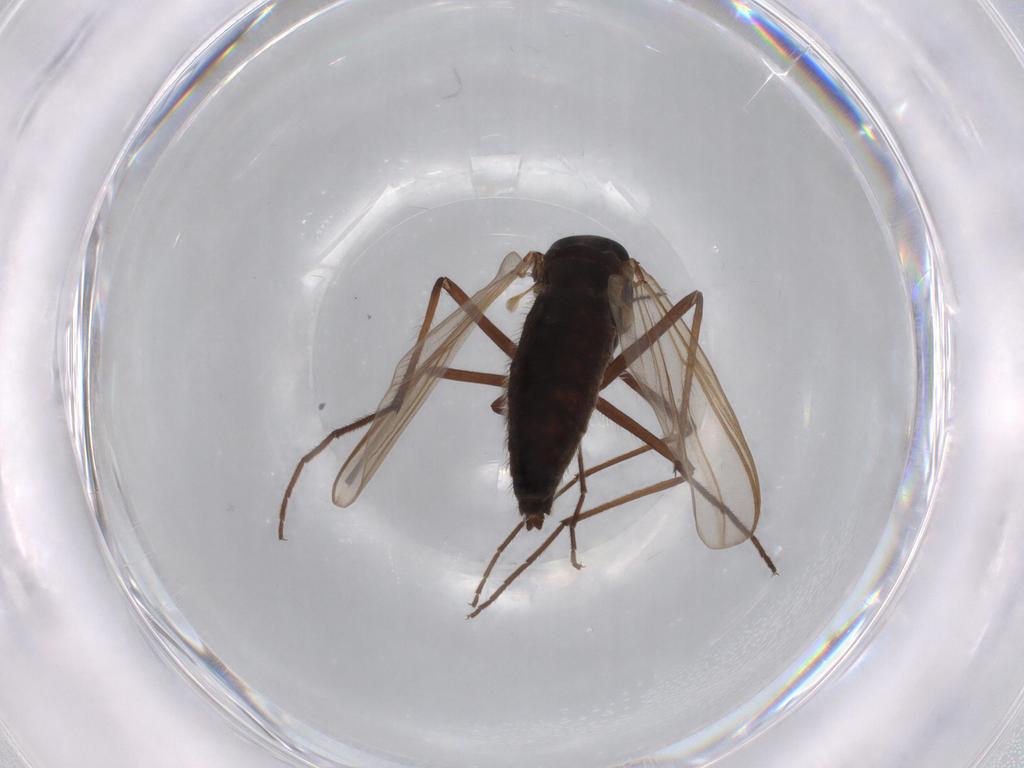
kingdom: Animalia
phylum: Arthropoda
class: Insecta
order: Diptera
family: Ceratopogonidae
